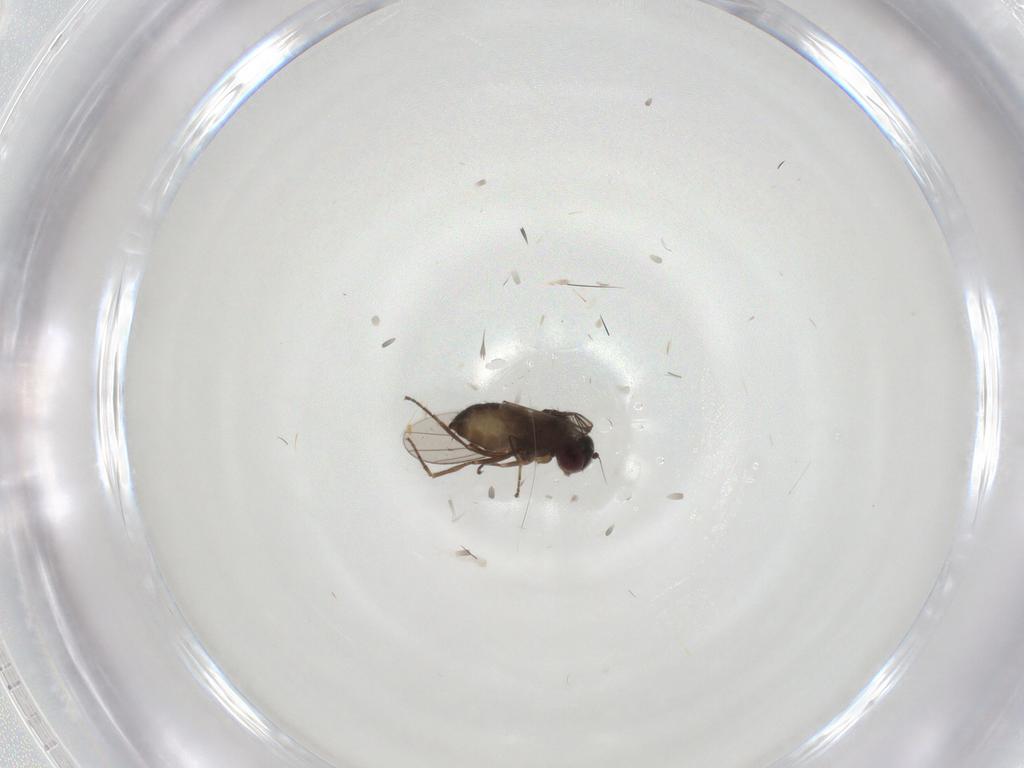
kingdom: Animalia
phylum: Arthropoda
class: Insecta
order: Diptera
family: Dolichopodidae
